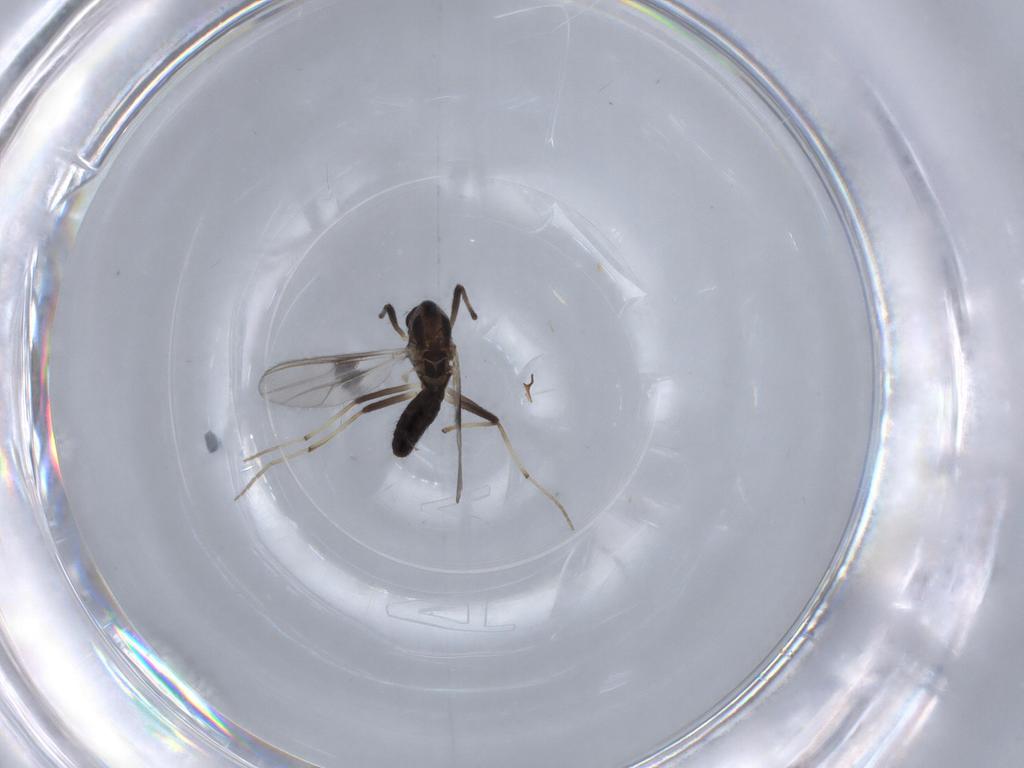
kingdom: Animalia
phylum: Arthropoda
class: Insecta
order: Diptera
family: Chironomidae
